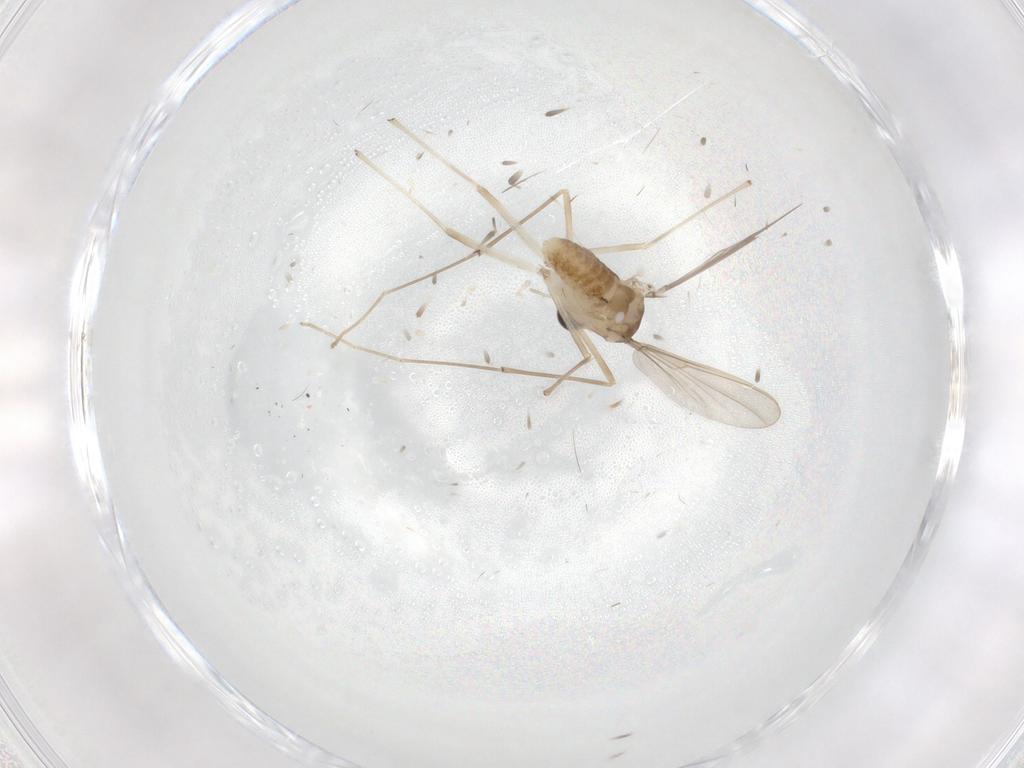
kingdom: Animalia
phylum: Arthropoda
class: Insecta
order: Diptera
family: Chironomidae
